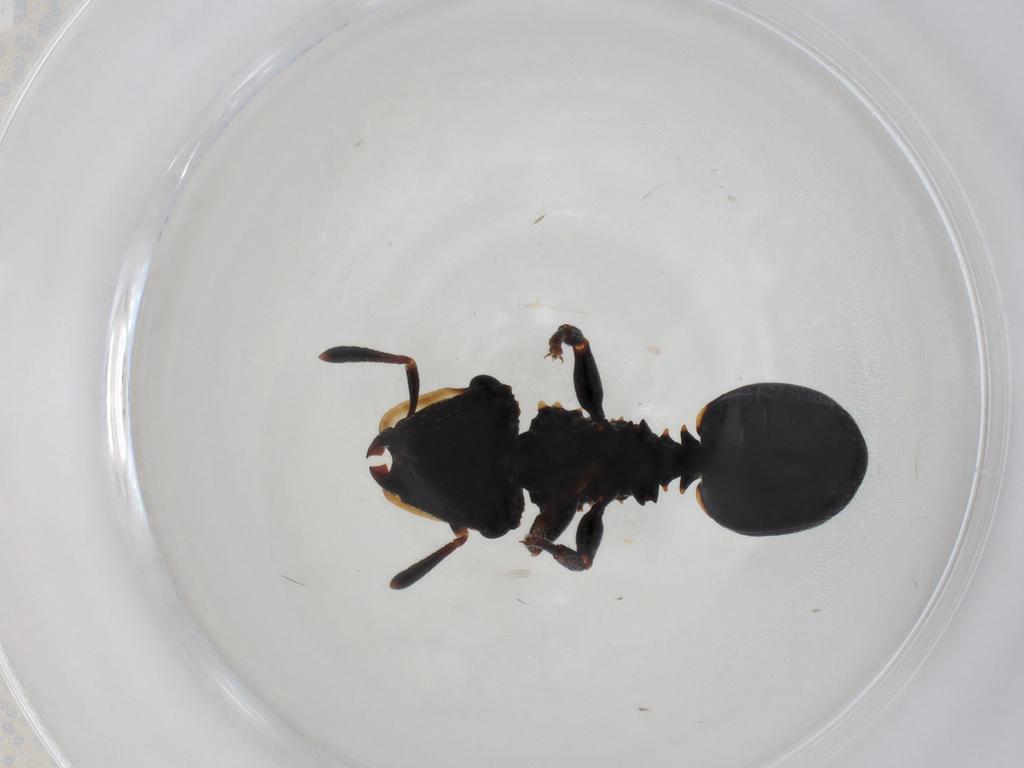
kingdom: Animalia
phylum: Arthropoda
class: Insecta
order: Hymenoptera
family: Formicidae
